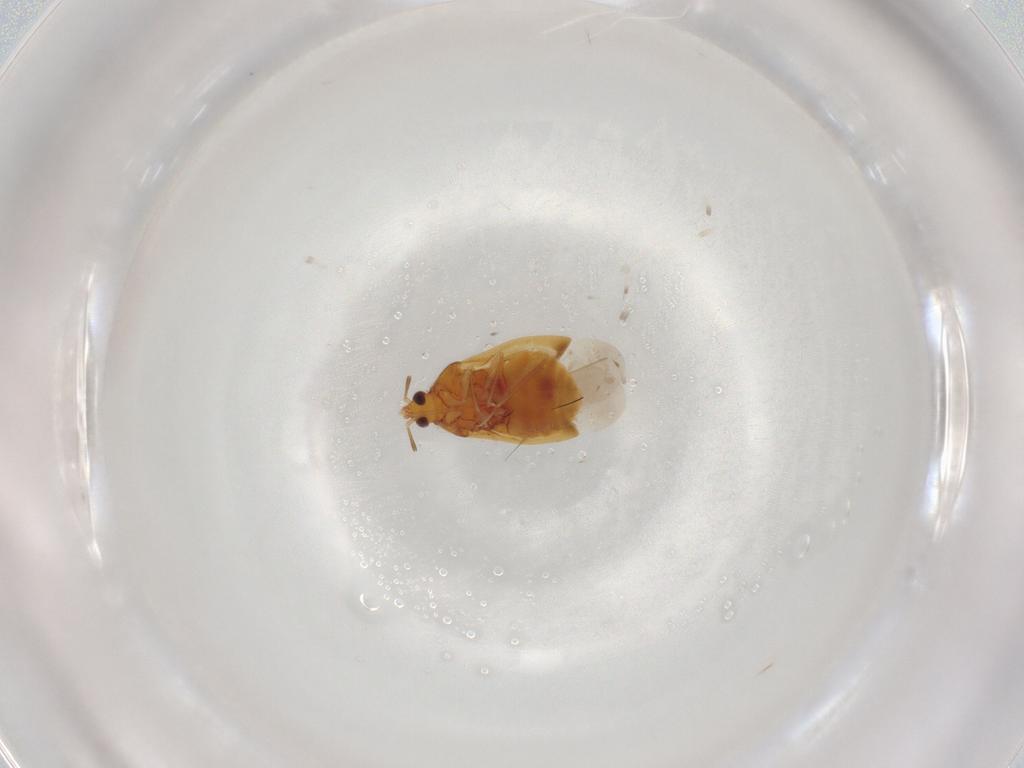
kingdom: Animalia
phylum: Arthropoda
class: Insecta
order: Hemiptera
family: Cicadellidae
